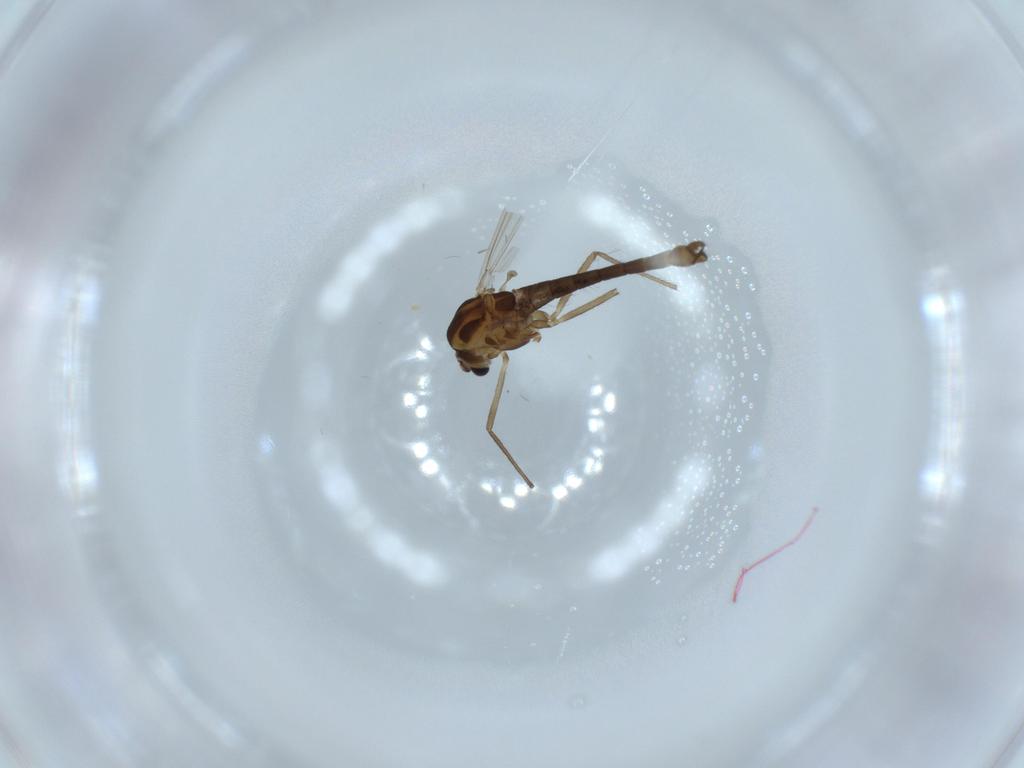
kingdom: Animalia
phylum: Arthropoda
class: Insecta
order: Diptera
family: Chironomidae
